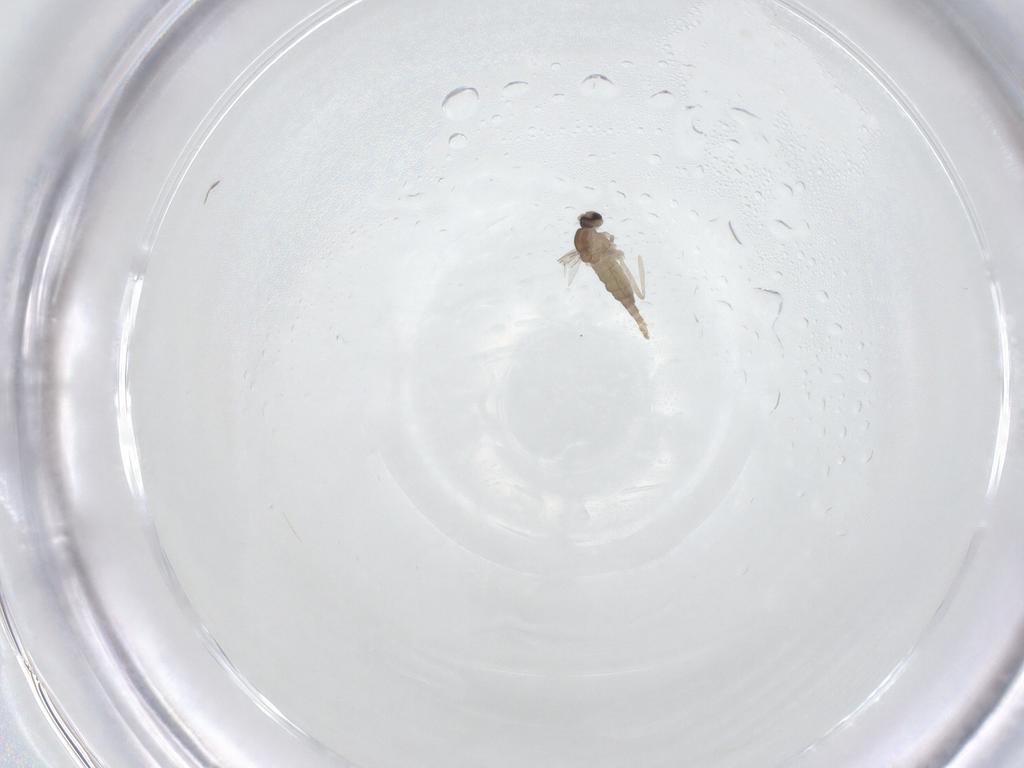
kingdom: Animalia
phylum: Arthropoda
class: Insecta
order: Diptera
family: Cecidomyiidae
